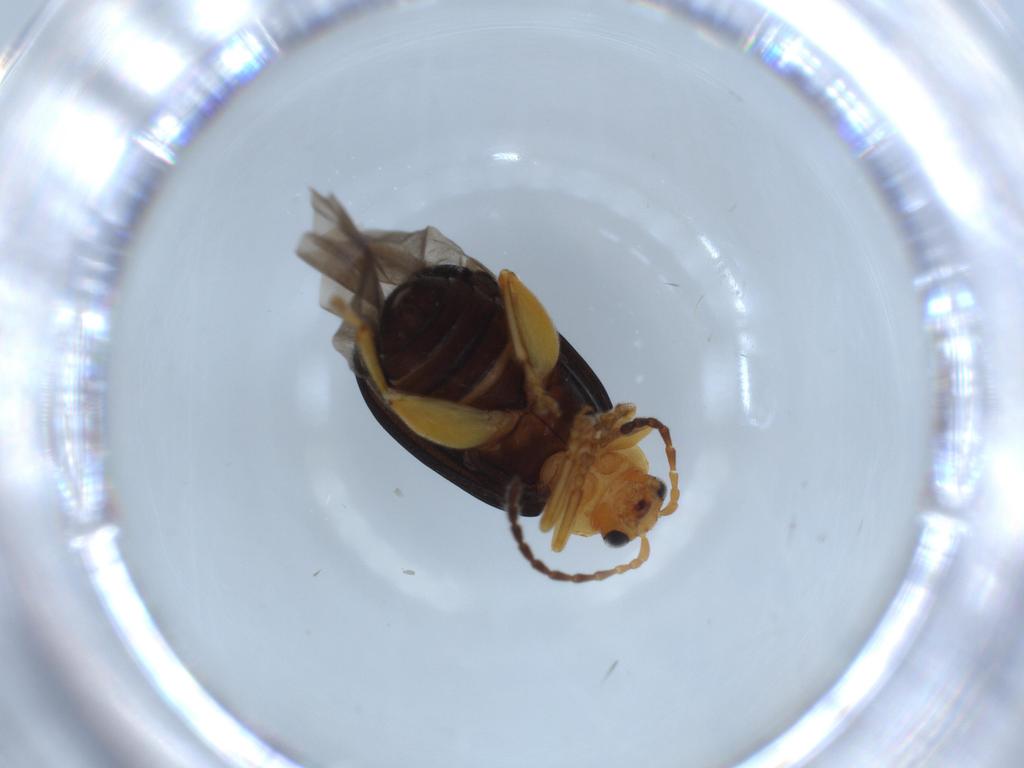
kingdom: Animalia
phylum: Arthropoda
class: Insecta
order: Coleoptera
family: Chrysomelidae
